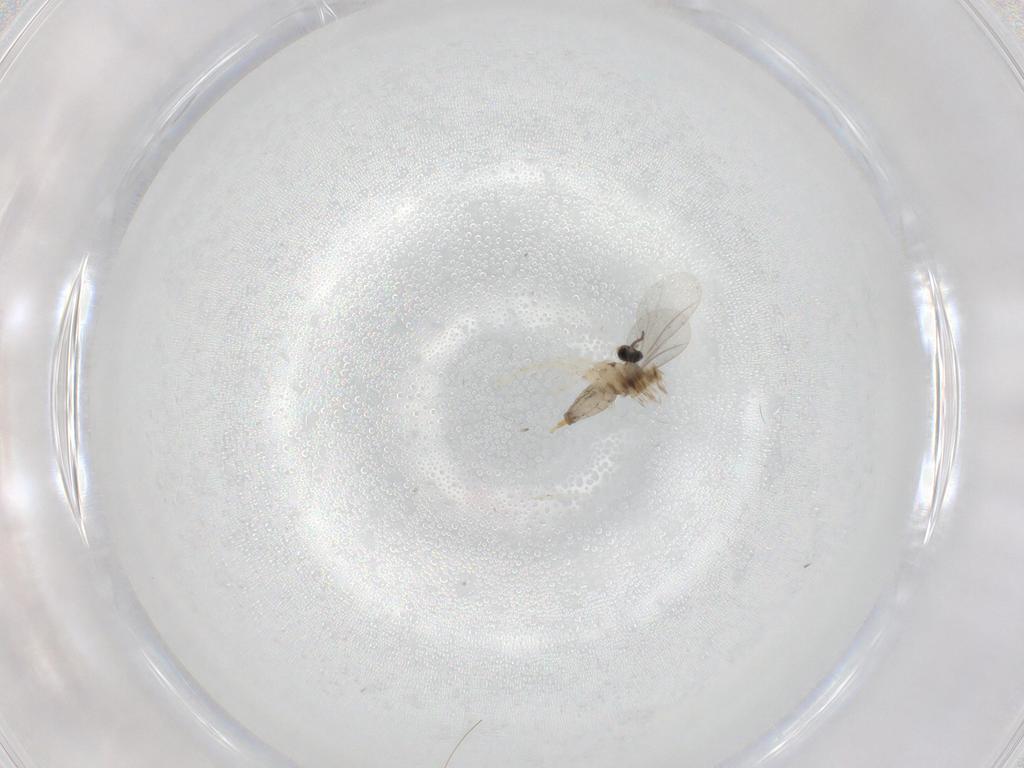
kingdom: Animalia
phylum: Arthropoda
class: Insecta
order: Diptera
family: Cecidomyiidae
